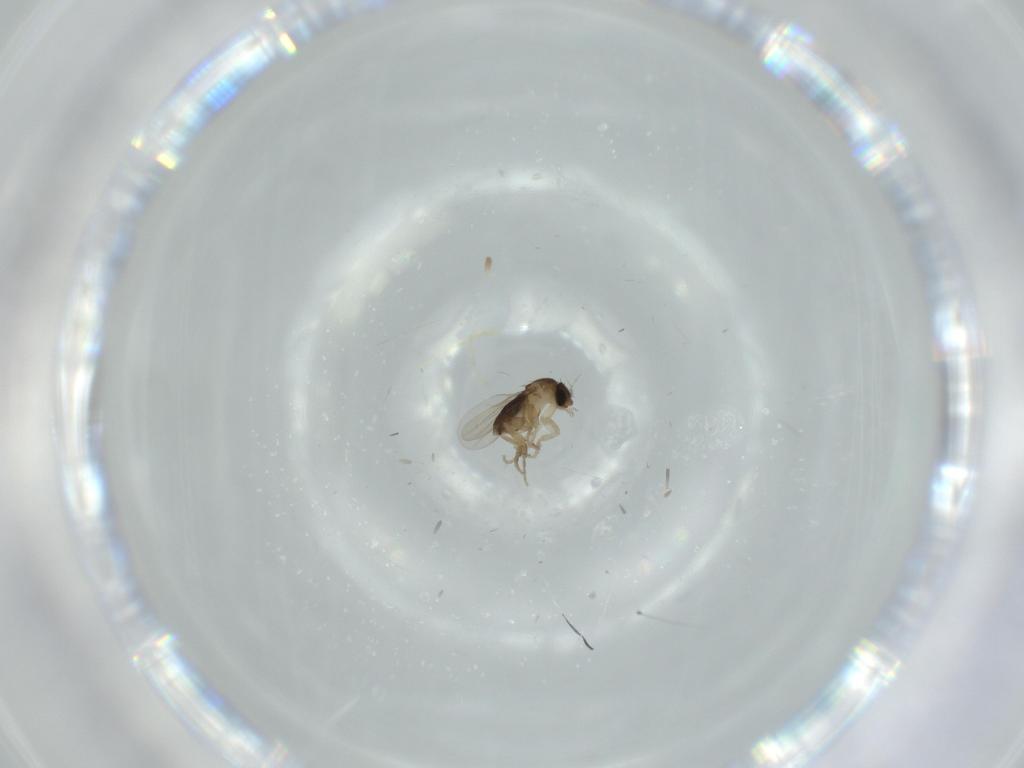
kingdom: Animalia
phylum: Arthropoda
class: Insecta
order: Diptera
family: Phoridae
